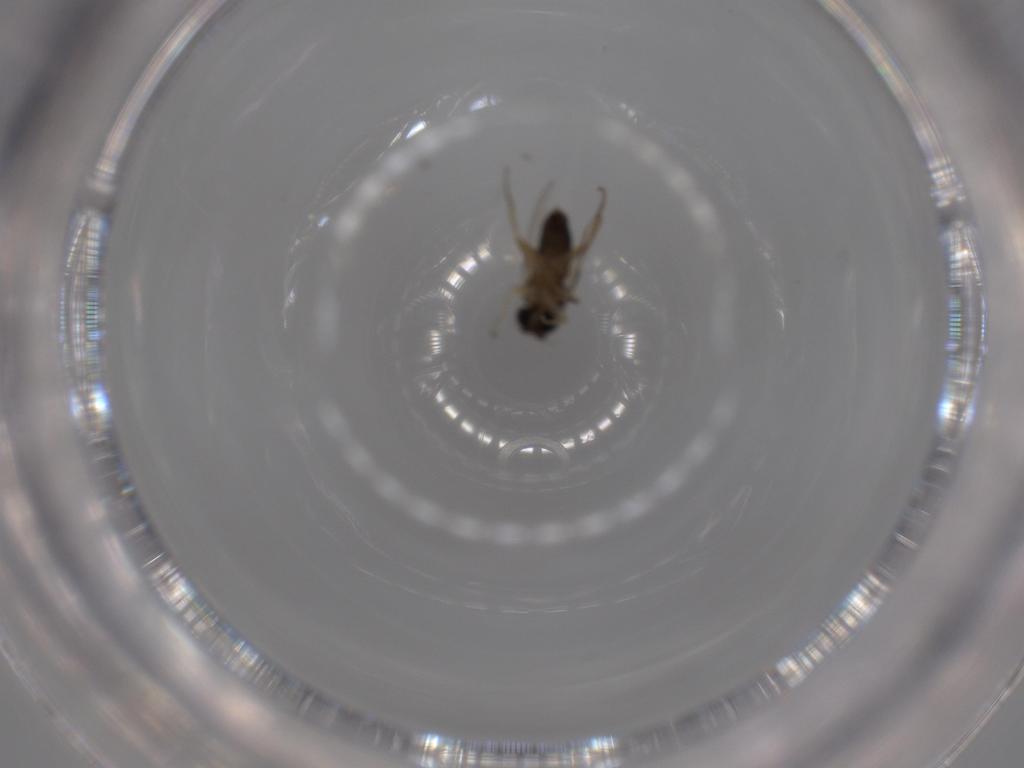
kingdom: Animalia
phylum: Arthropoda
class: Insecta
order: Diptera
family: Phoridae
